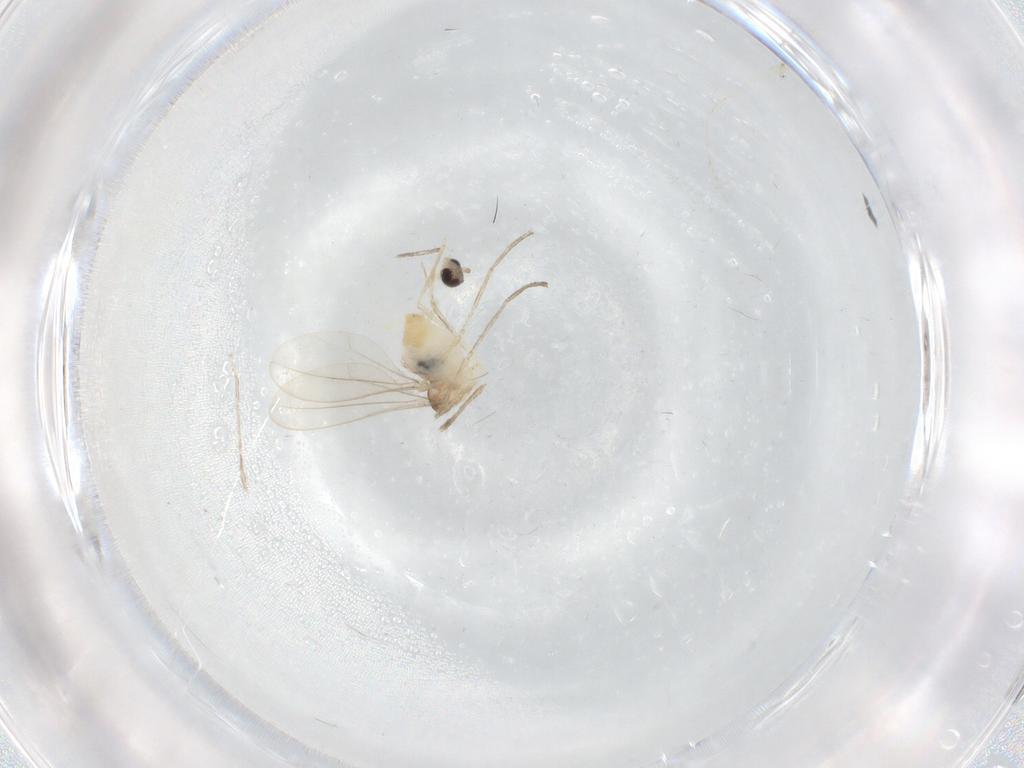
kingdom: Animalia
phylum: Arthropoda
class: Insecta
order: Diptera
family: Cecidomyiidae
